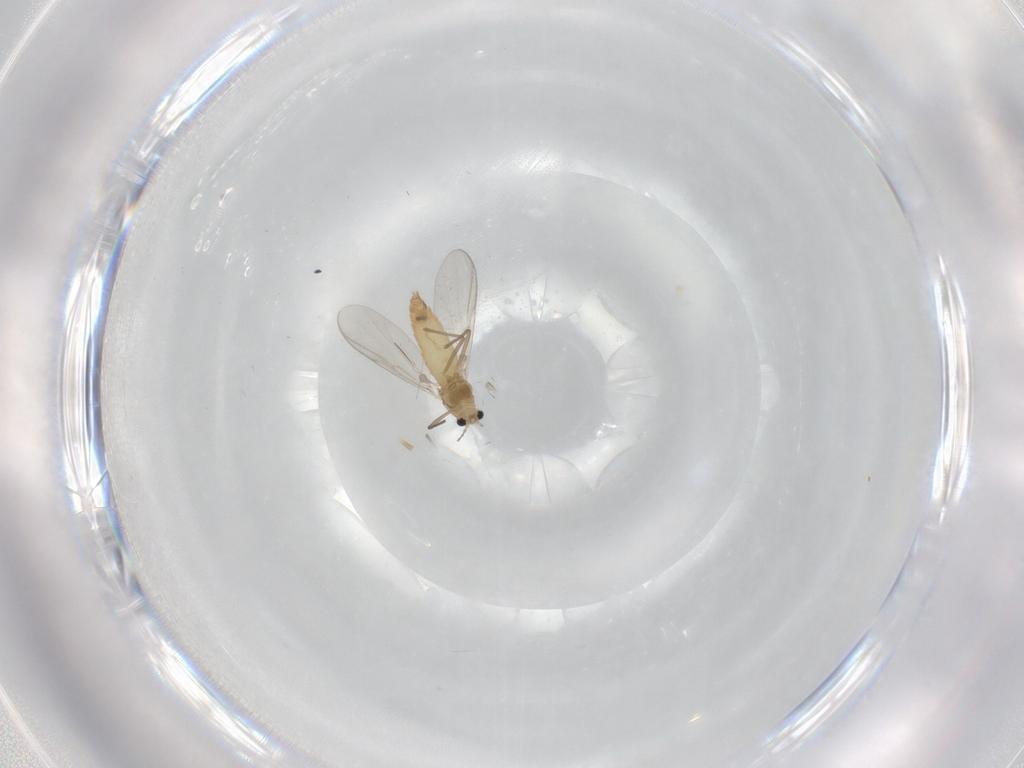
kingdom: Animalia
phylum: Arthropoda
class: Insecta
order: Diptera
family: Chironomidae
